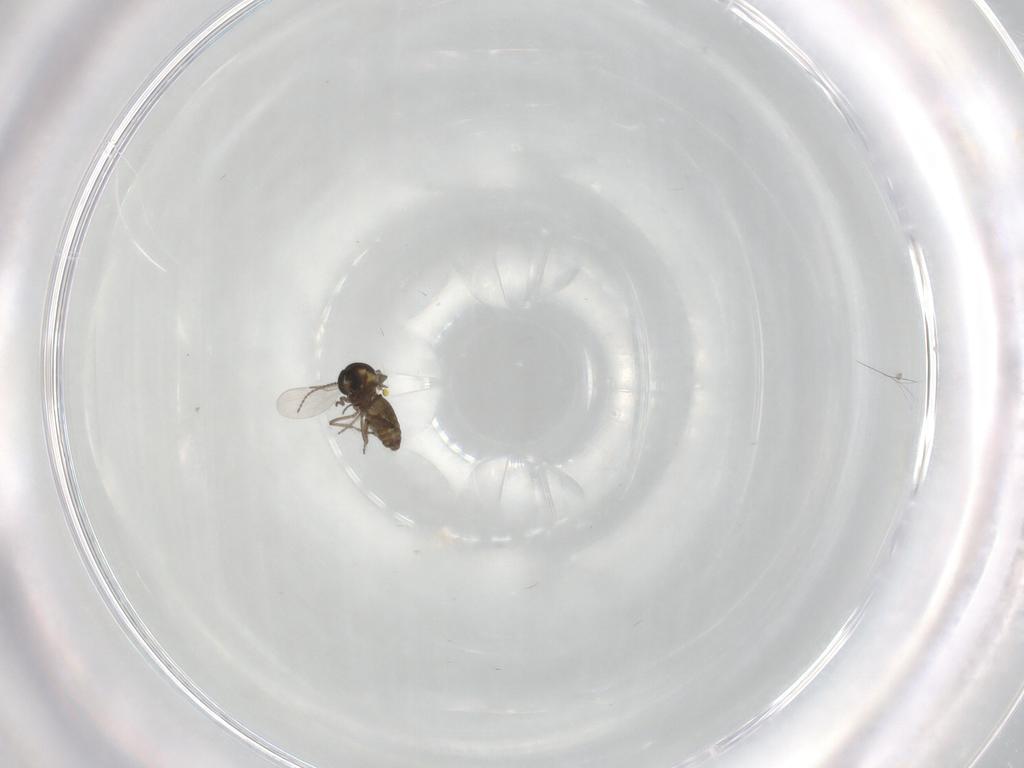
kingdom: Animalia
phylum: Arthropoda
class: Insecta
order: Diptera
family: Ceratopogonidae
